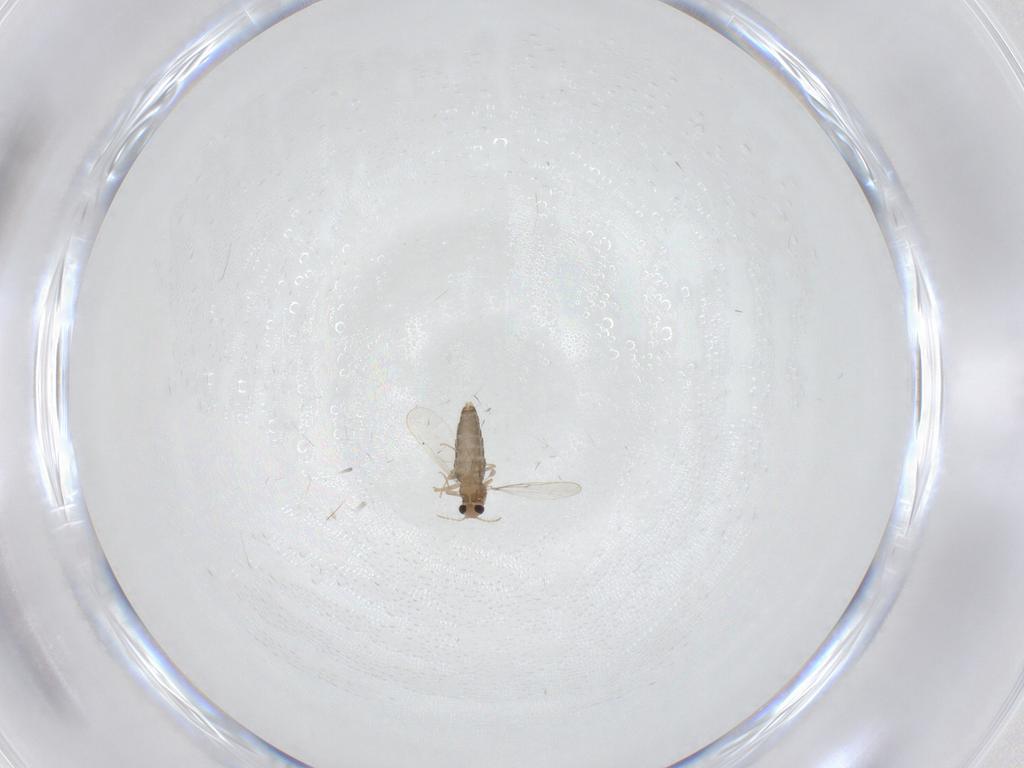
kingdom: Animalia
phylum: Arthropoda
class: Insecta
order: Diptera
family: Chironomidae
